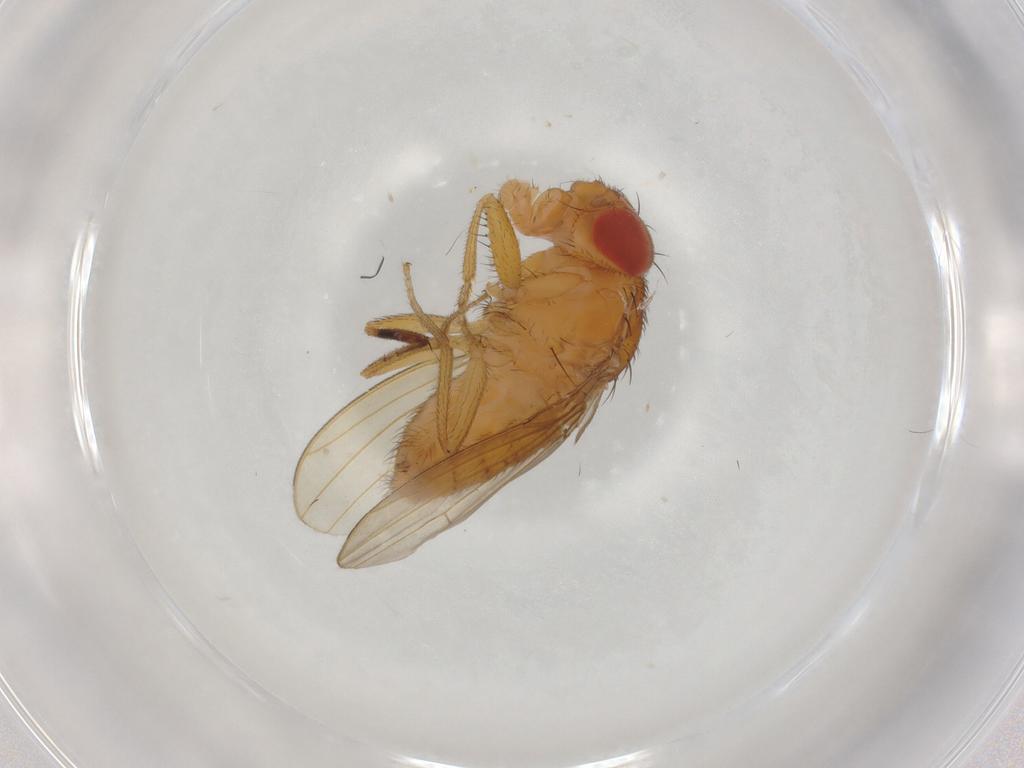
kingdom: Animalia
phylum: Arthropoda
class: Insecta
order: Diptera
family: Drosophilidae
